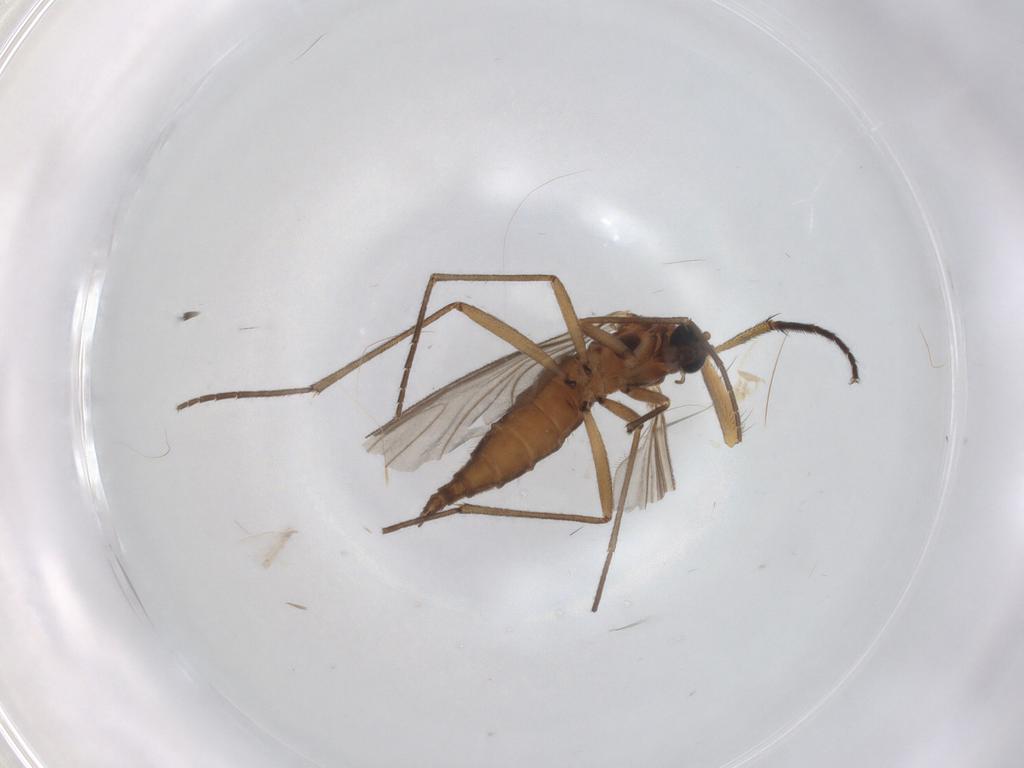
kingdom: Animalia
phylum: Arthropoda
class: Insecta
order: Diptera
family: Sciaridae
